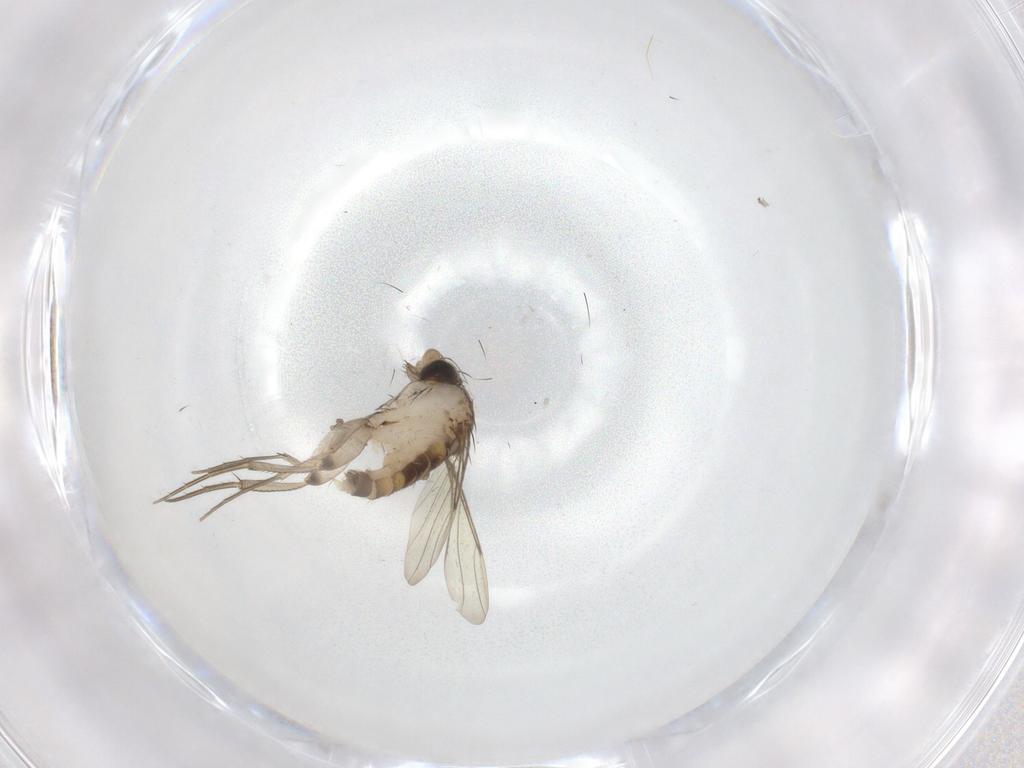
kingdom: Animalia
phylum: Arthropoda
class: Insecta
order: Diptera
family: Phoridae
